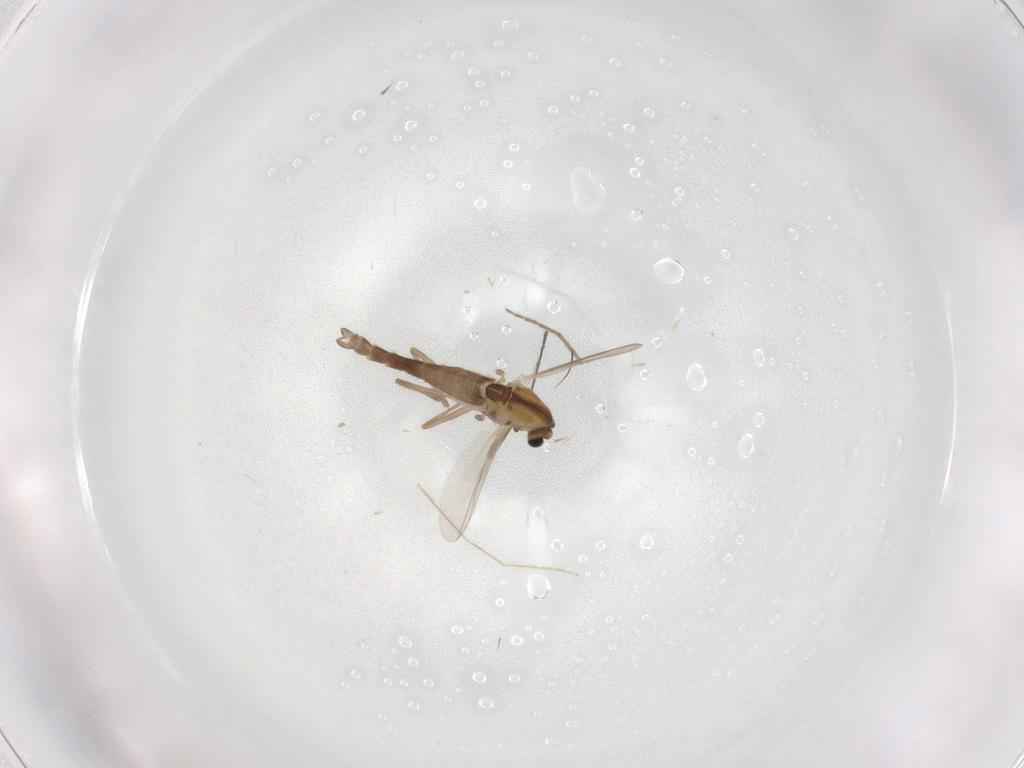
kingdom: Animalia
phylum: Arthropoda
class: Insecta
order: Diptera
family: Chironomidae
